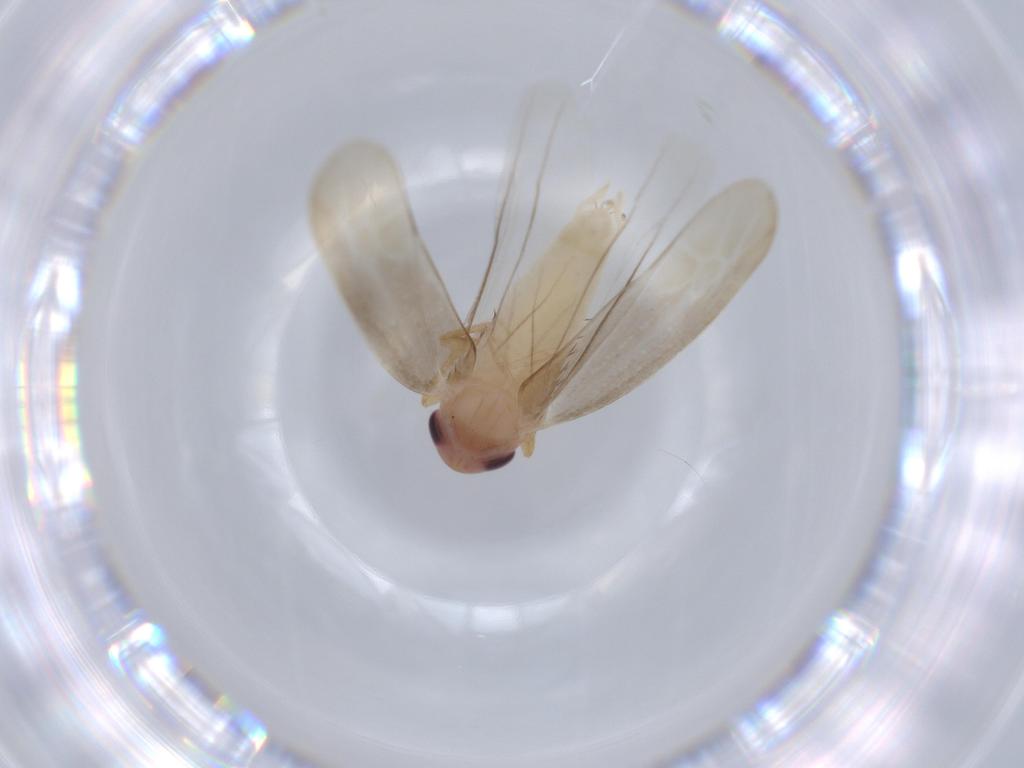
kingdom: Animalia
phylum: Arthropoda
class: Insecta
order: Hemiptera
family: Cicadellidae
